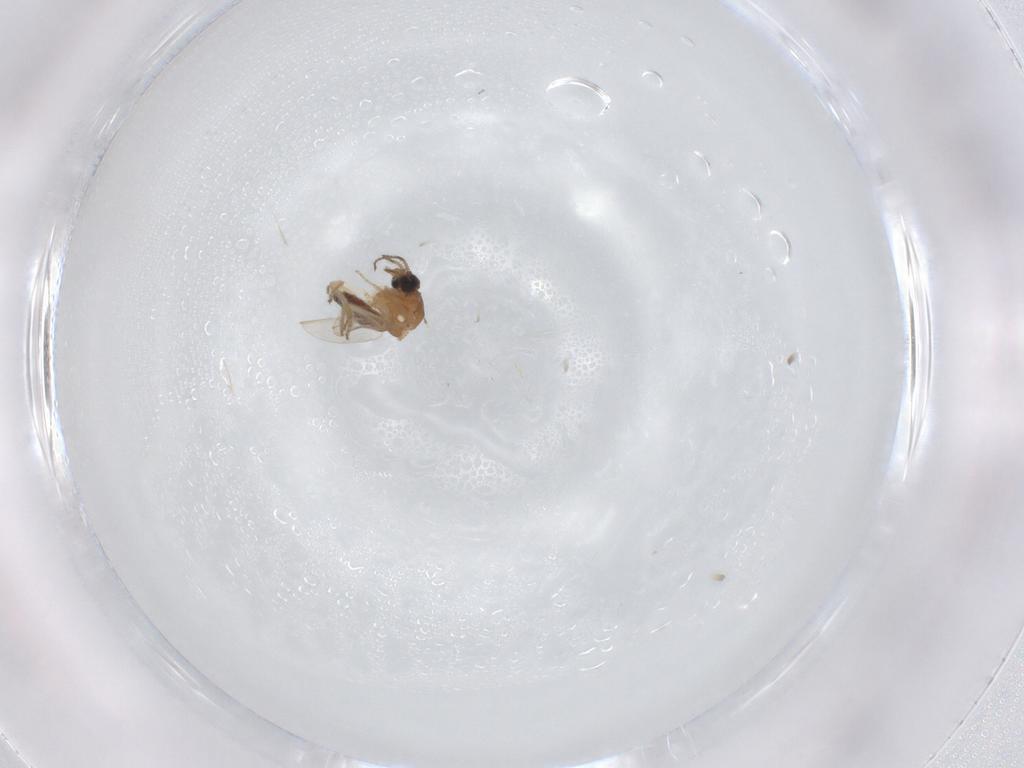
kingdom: Animalia
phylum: Arthropoda
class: Insecta
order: Diptera
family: Ceratopogonidae
